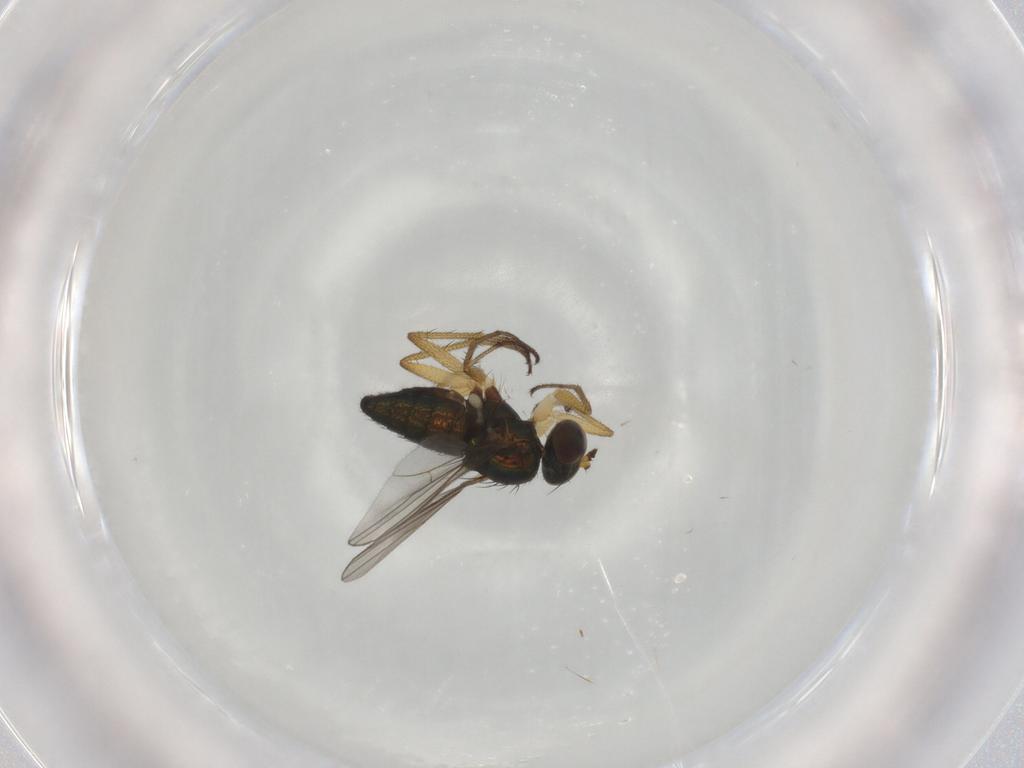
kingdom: Animalia
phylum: Arthropoda
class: Insecta
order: Diptera
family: Dolichopodidae
